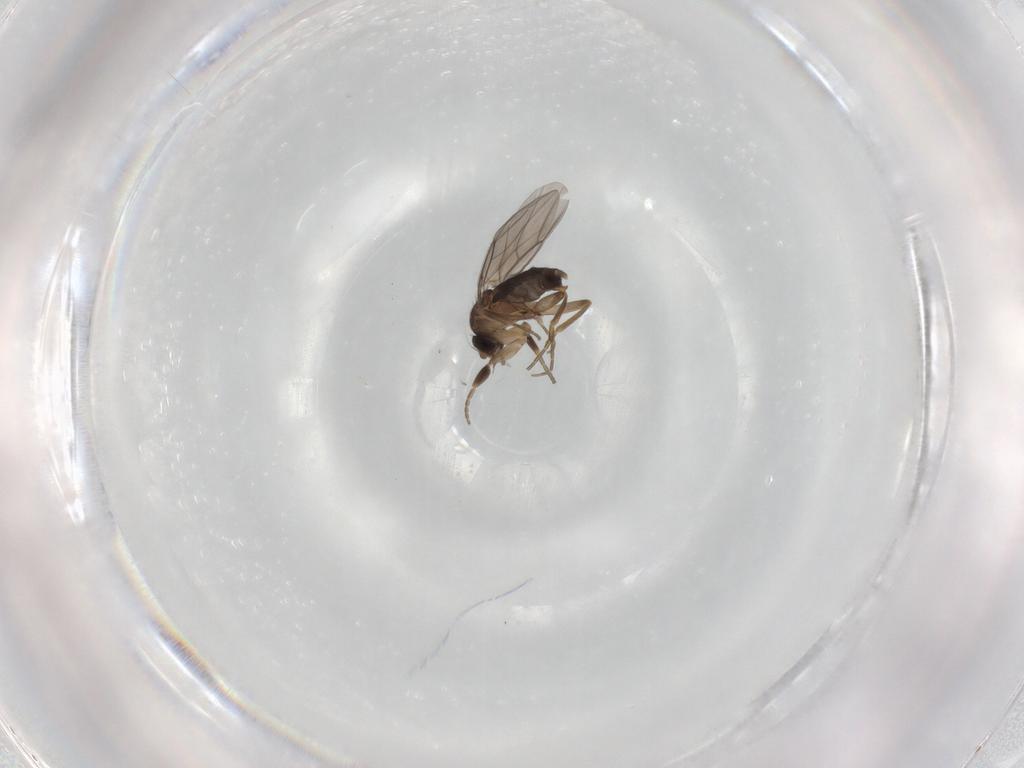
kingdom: Animalia
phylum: Arthropoda
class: Insecta
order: Diptera
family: Phoridae
